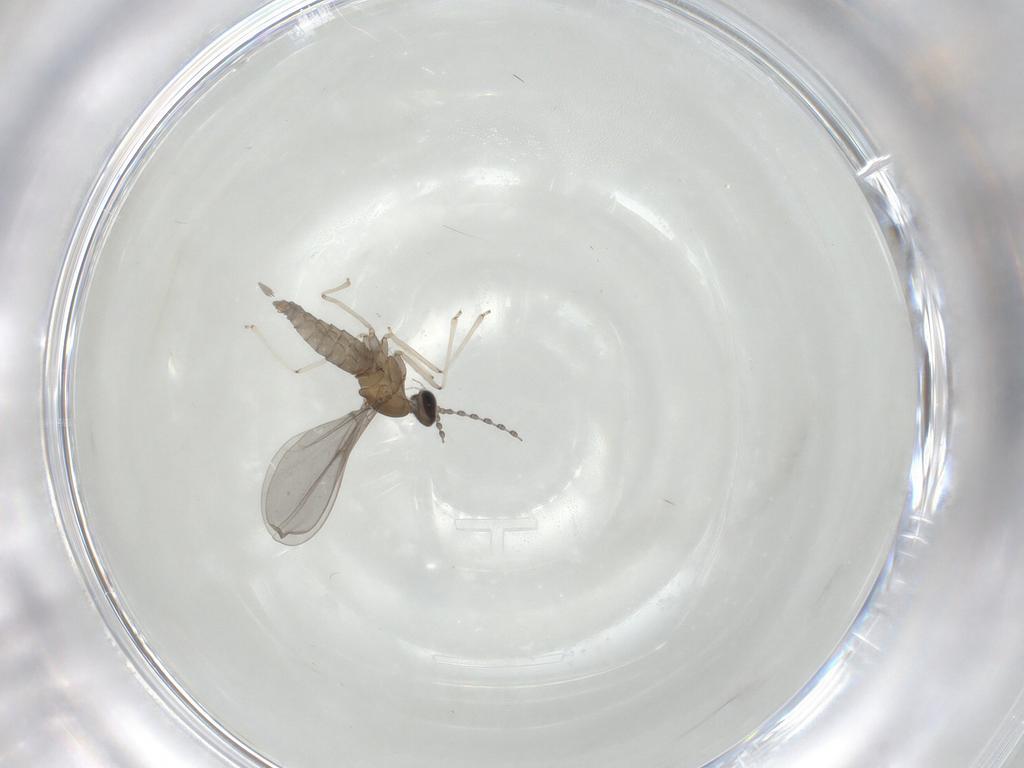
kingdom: Animalia
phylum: Arthropoda
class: Insecta
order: Diptera
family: Cecidomyiidae
